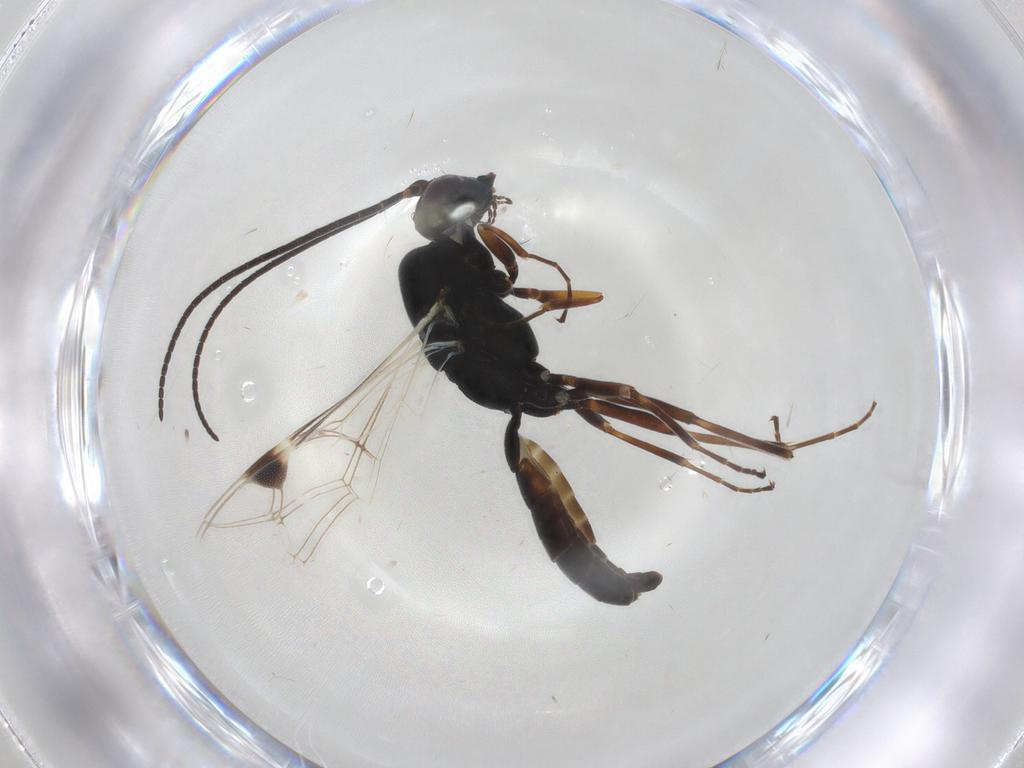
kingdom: Animalia
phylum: Arthropoda
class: Insecta
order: Hymenoptera
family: Ichneumonidae
